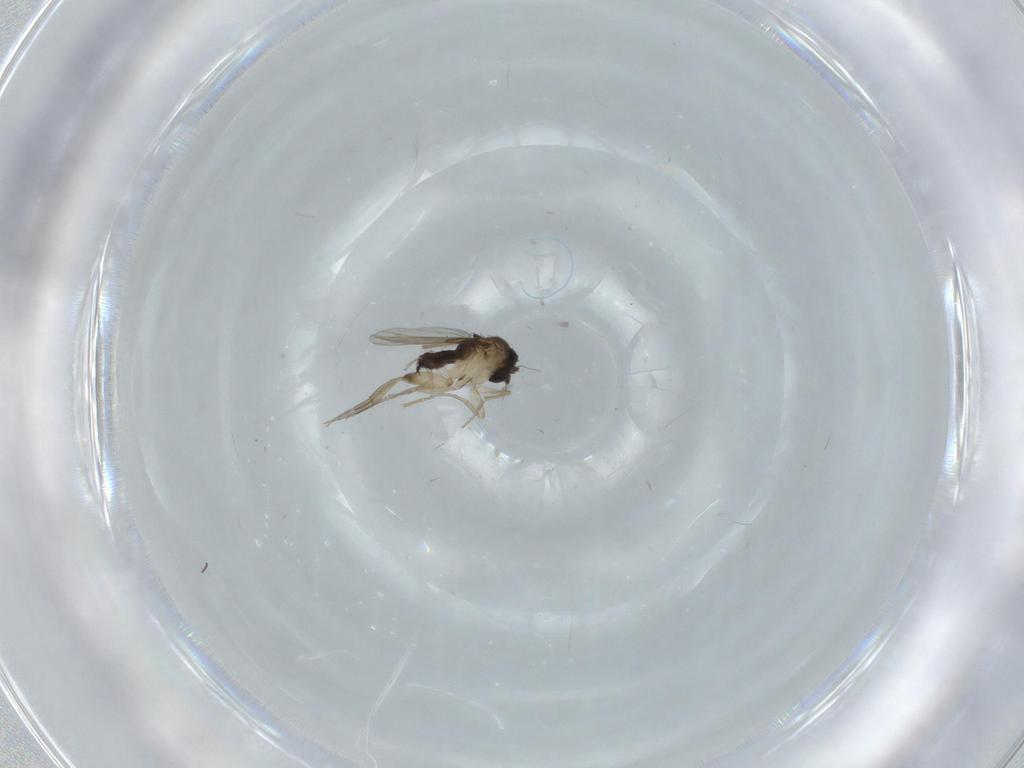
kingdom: Animalia
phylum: Arthropoda
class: Insecta
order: Diptera
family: Phoridae
